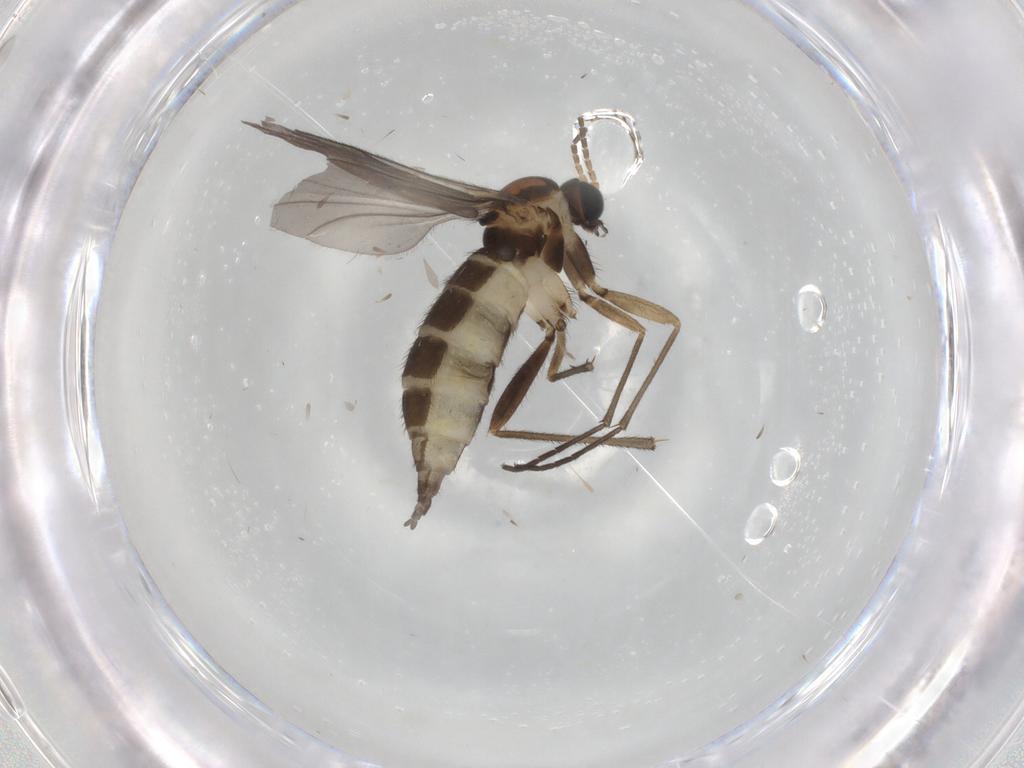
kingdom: Animalia
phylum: Arthropoda
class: Insecta
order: Diptera
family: Sciaridae
